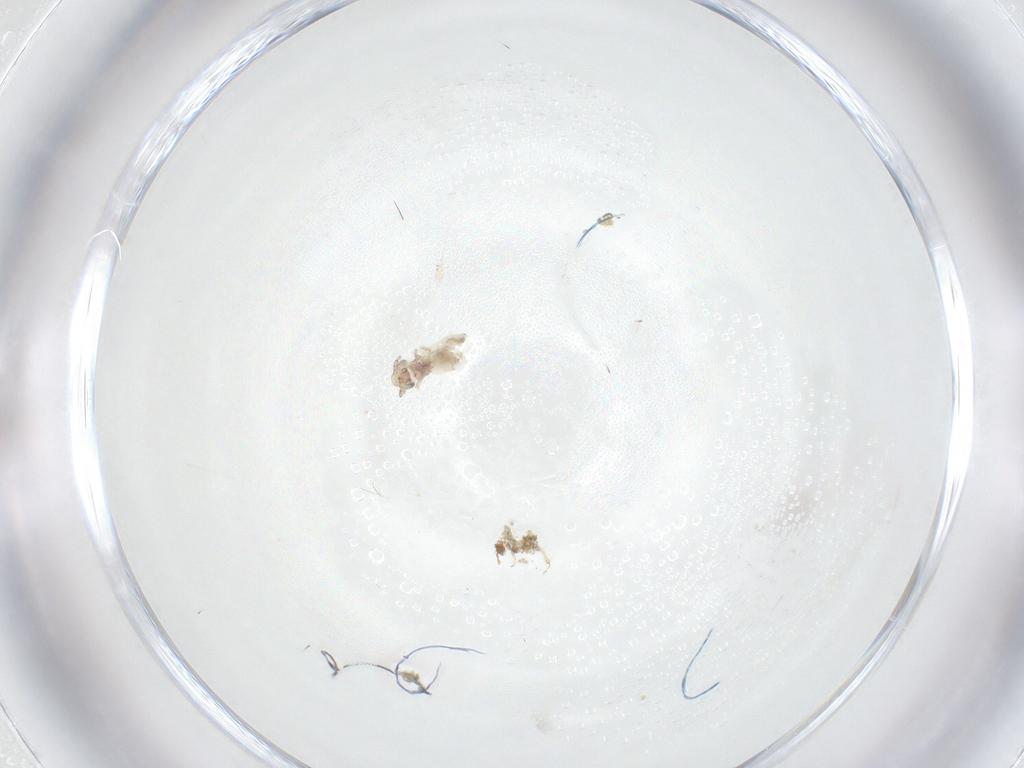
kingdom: Animalia
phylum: Arthropoda
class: Insecta
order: Psocodea
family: Lepidopsocidae
